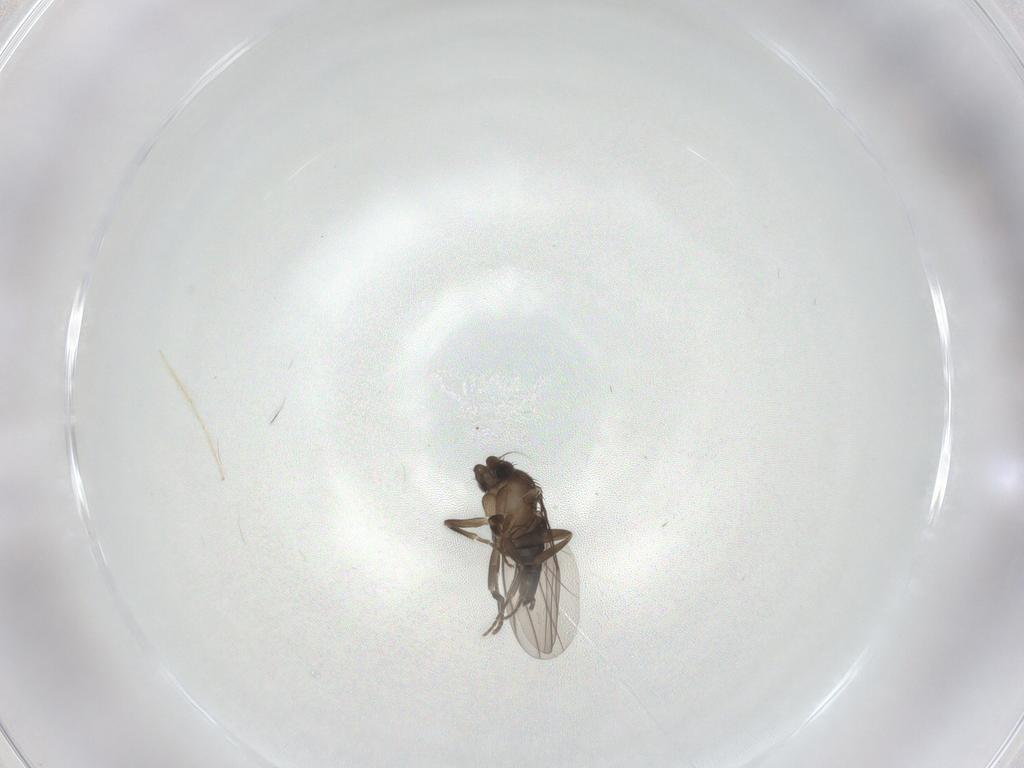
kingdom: Animalia
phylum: Arthropoda
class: Insecta
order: Diptera
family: Chironomidae
